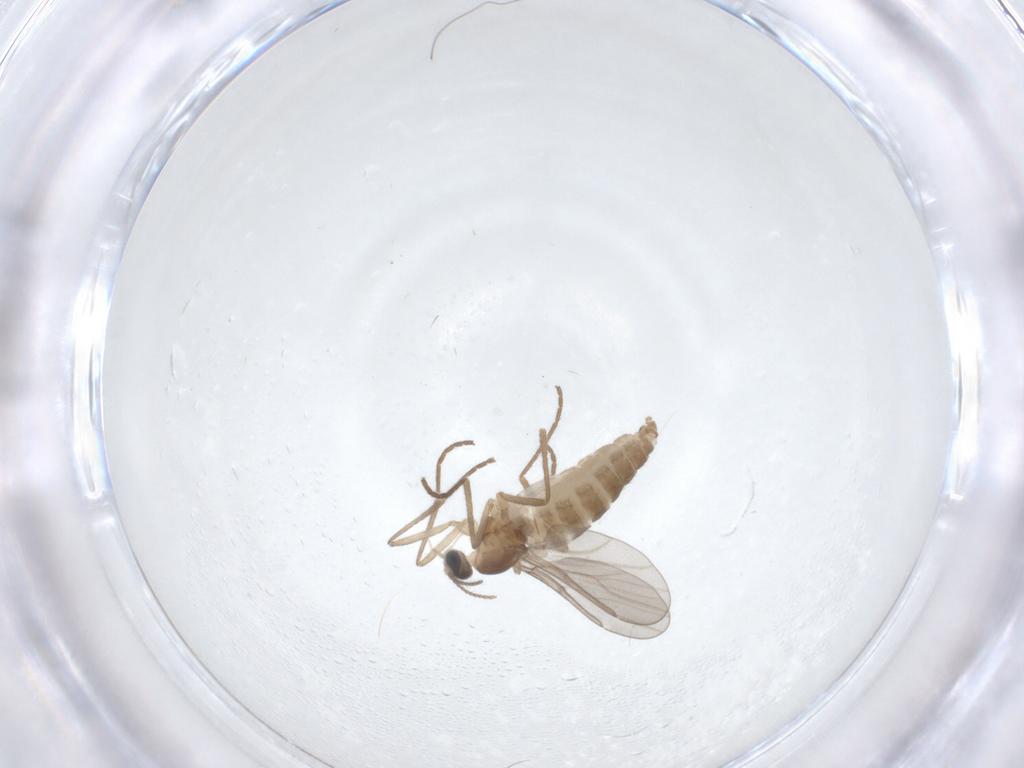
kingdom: Animalia
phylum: Arthropoda
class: Insecta
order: Diptera
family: Cecidomyiidae
